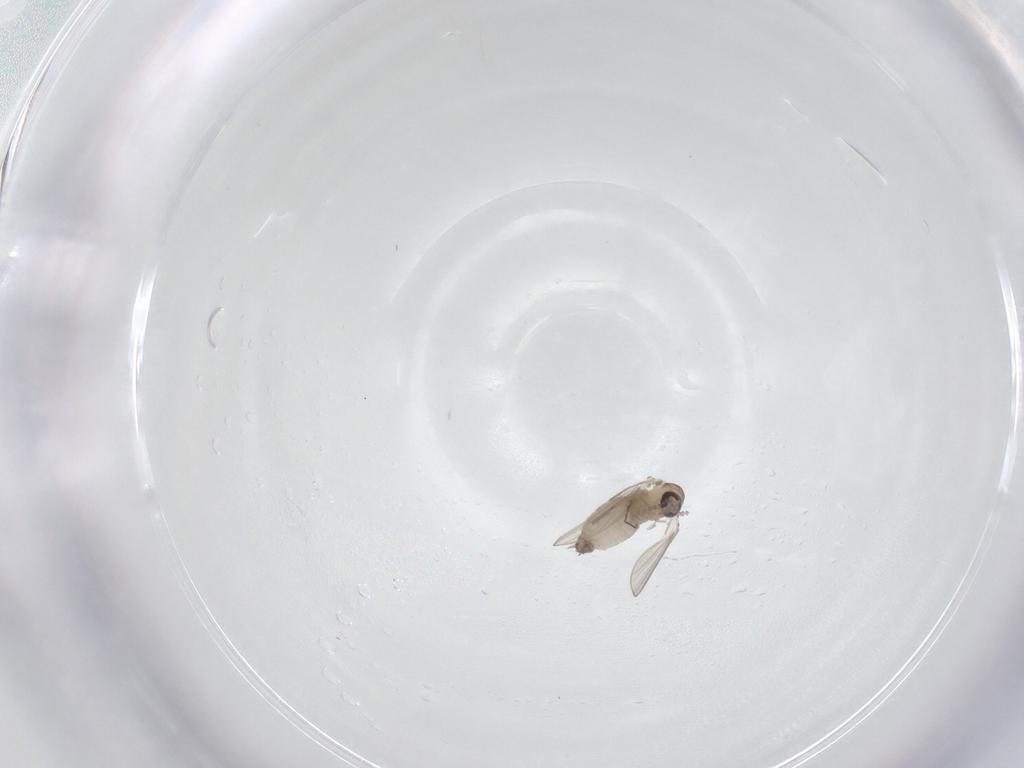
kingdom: Animalia
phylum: Arthropoda
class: Insecta
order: Diptera
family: Psychodidae
